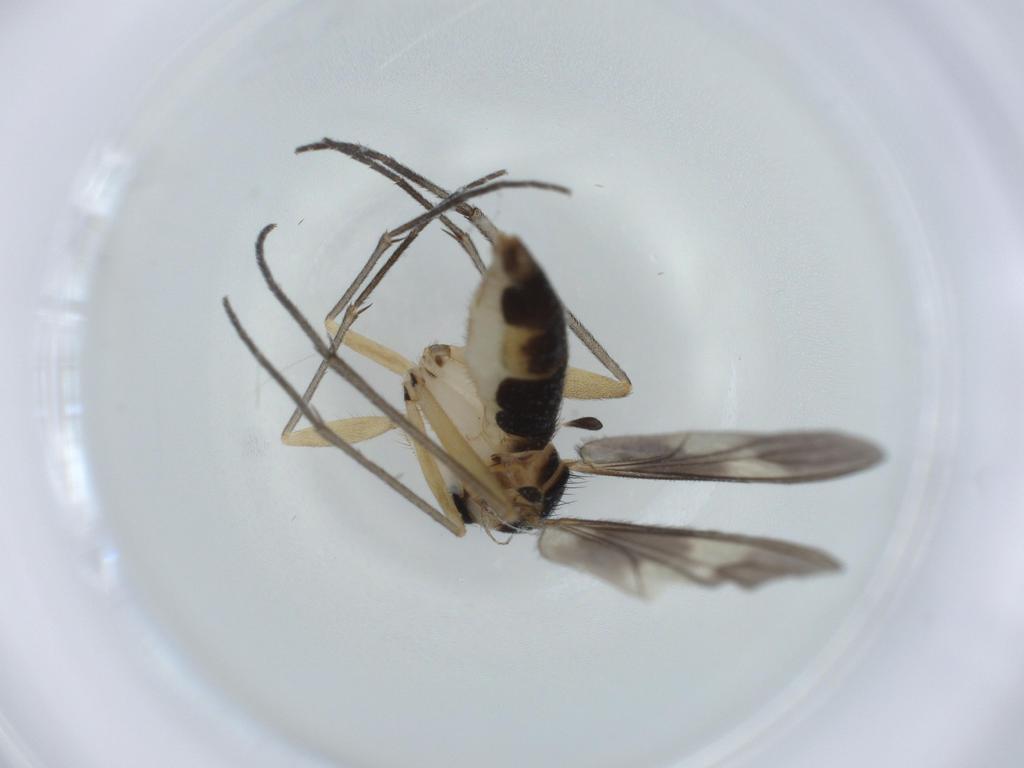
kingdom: Animalia
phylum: Arthropoda
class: Insecta
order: Diptera
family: Sciaridae
